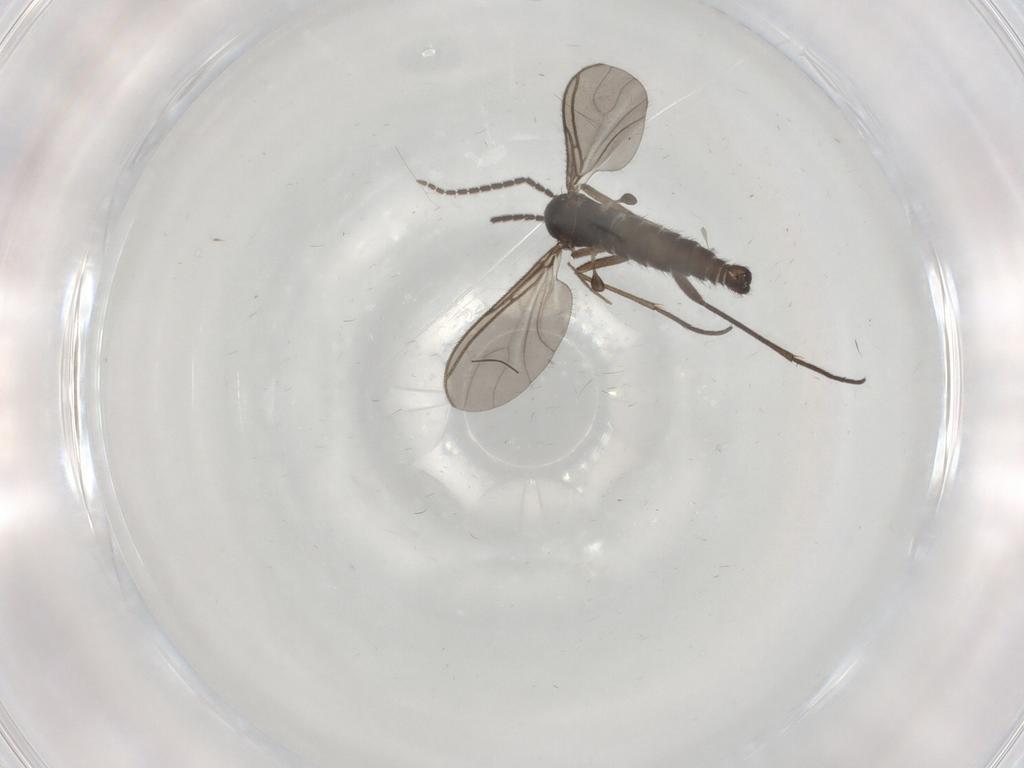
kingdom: Animalia
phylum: Arthropoda
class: Insecta
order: Diptera
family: Sciaridae
